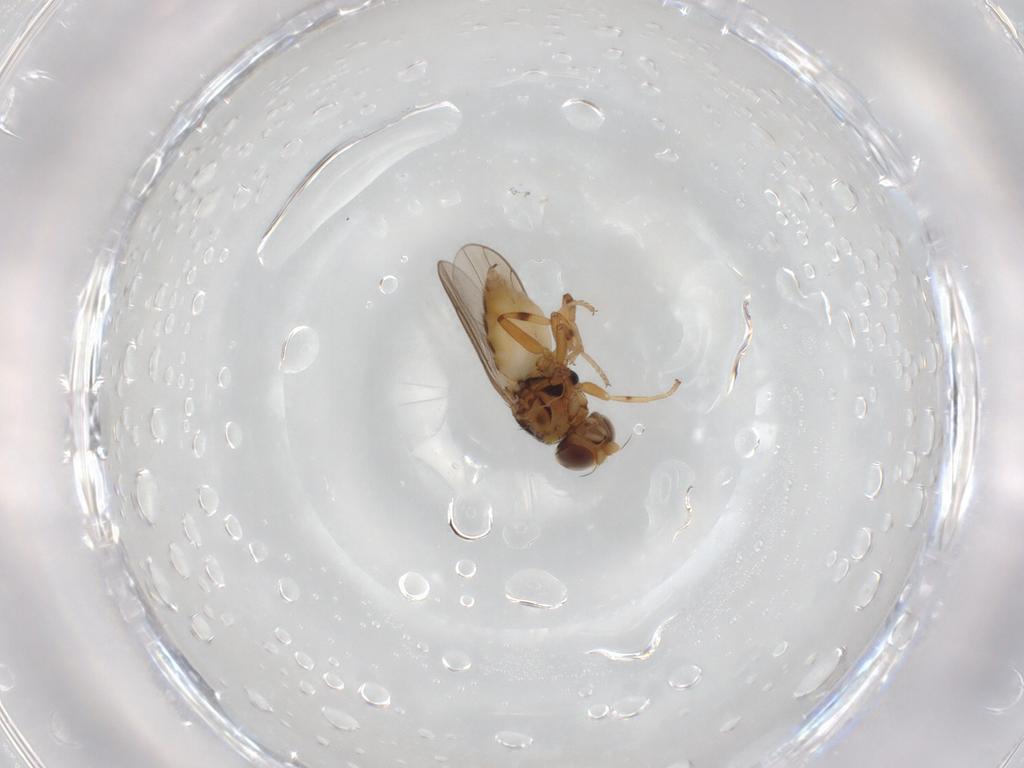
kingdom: Animalia
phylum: Arthropoda
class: Insecta
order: Diptera
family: Chloropidae
